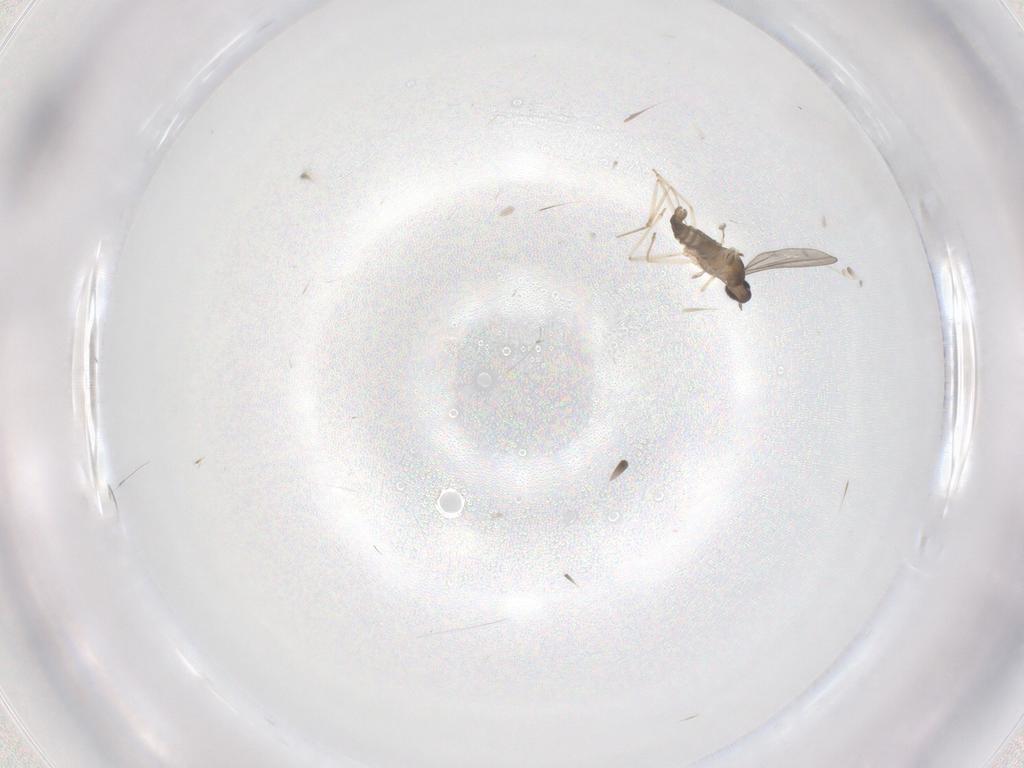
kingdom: Animalia
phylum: Arthropoda
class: Insecta
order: Diptera
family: Cecidomyiidae
